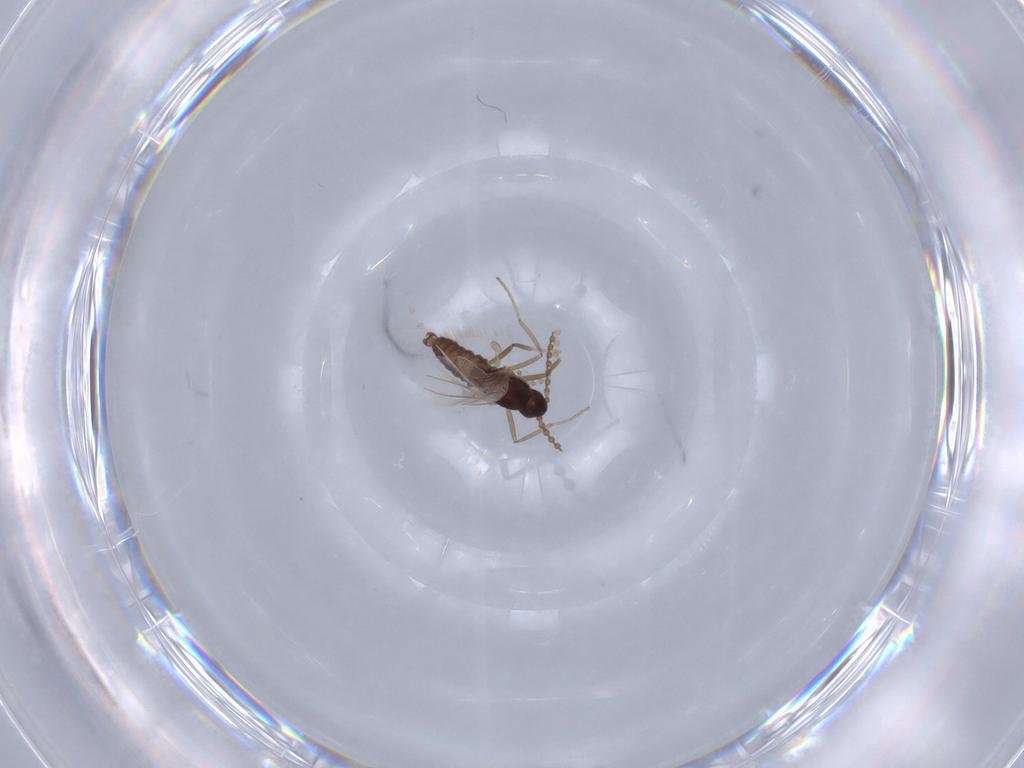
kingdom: Animalia
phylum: Arthropoda
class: Insecta
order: Diptera
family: Cecidomyiidae
